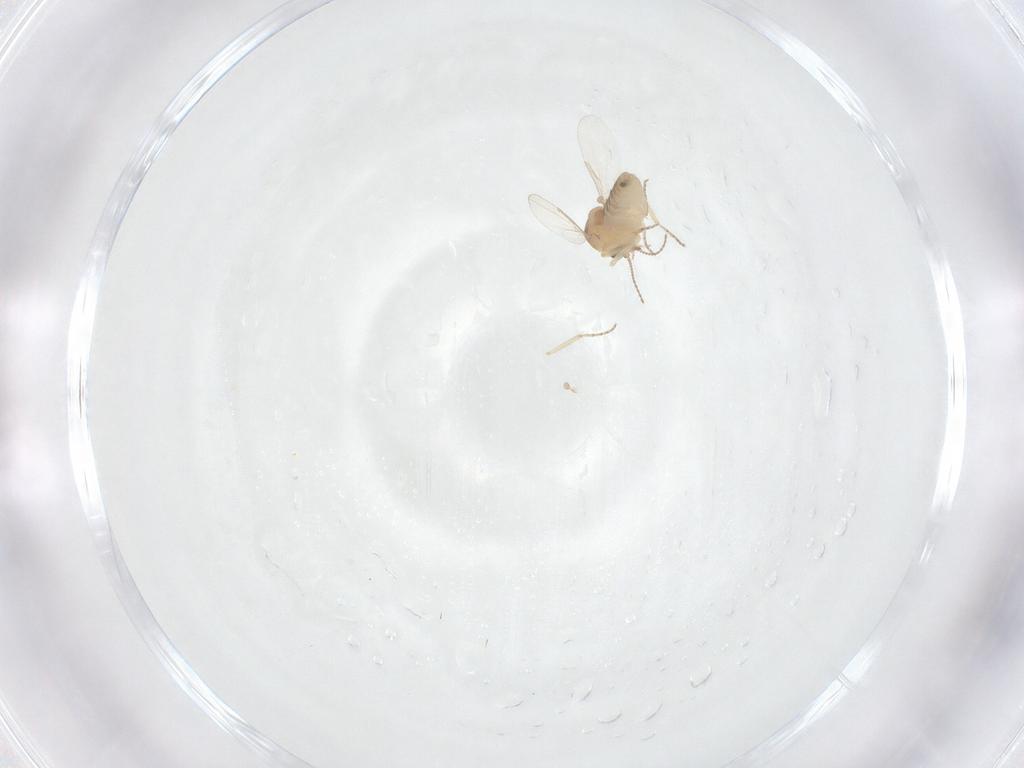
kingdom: Animalia
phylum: Arthropoda
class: Insecta
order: Diptera
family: Ceratopogonidae
